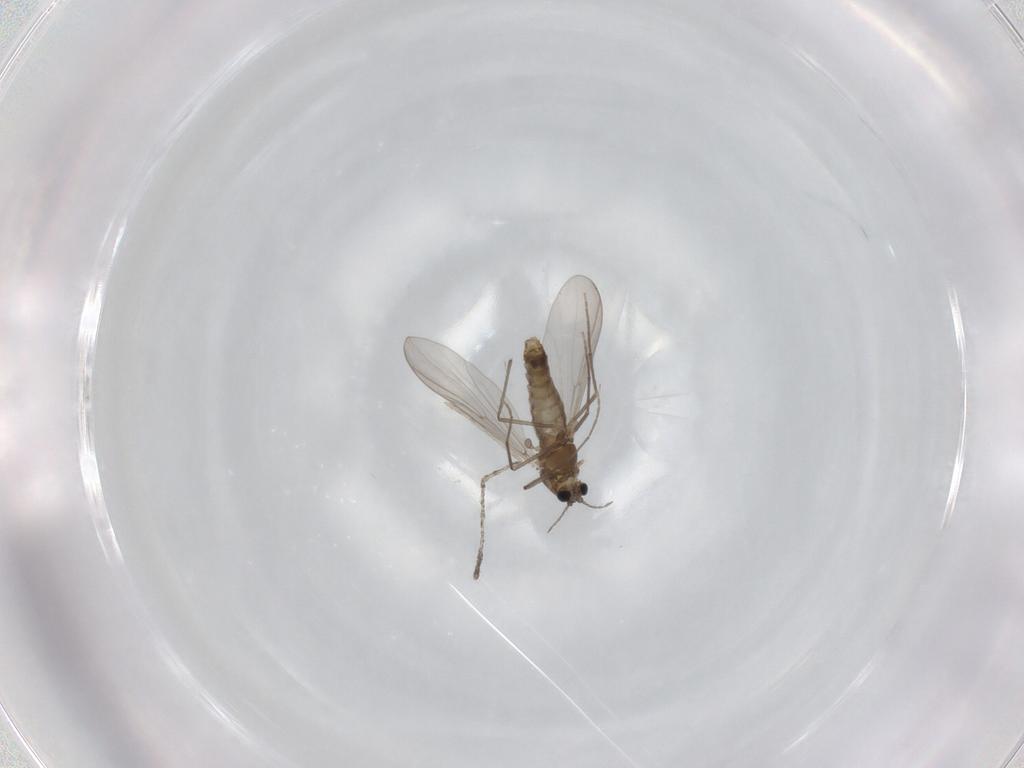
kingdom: Animalia
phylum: Arthropoda
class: Insecta
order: Diptera
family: Chironomidae
